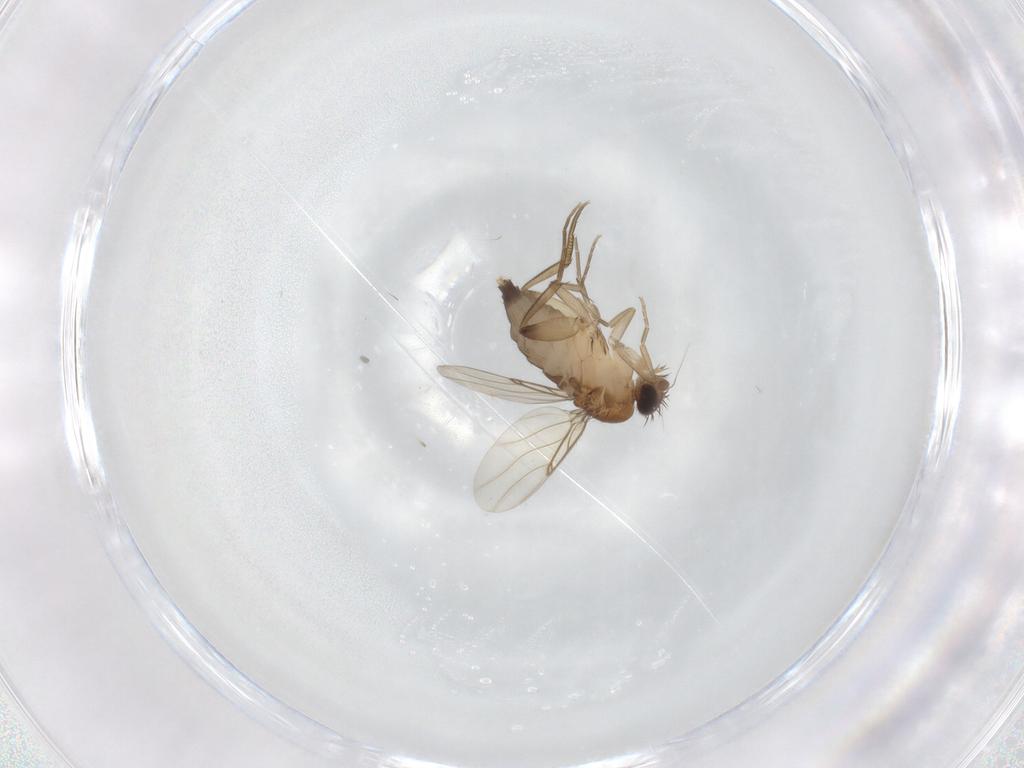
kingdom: Animalia
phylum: Arthropoda
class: Insecta
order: Diptera
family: Phoridae
